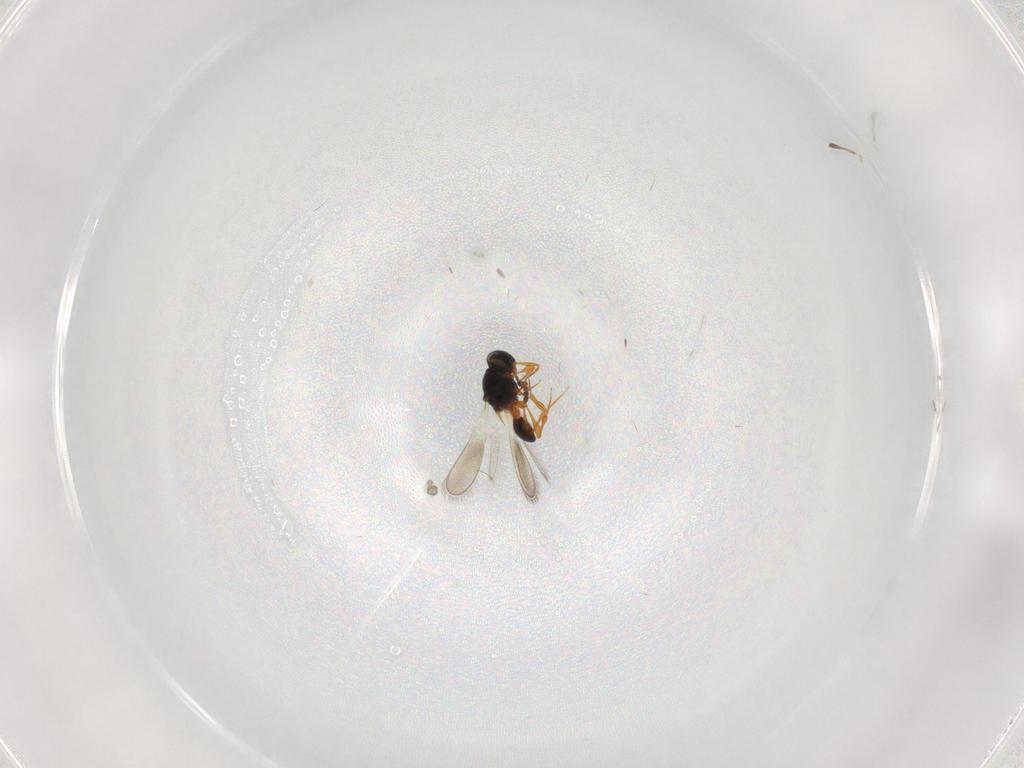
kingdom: Animalia
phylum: Arthropoda
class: Insecta
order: Hymenoptera
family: Platygastridae
